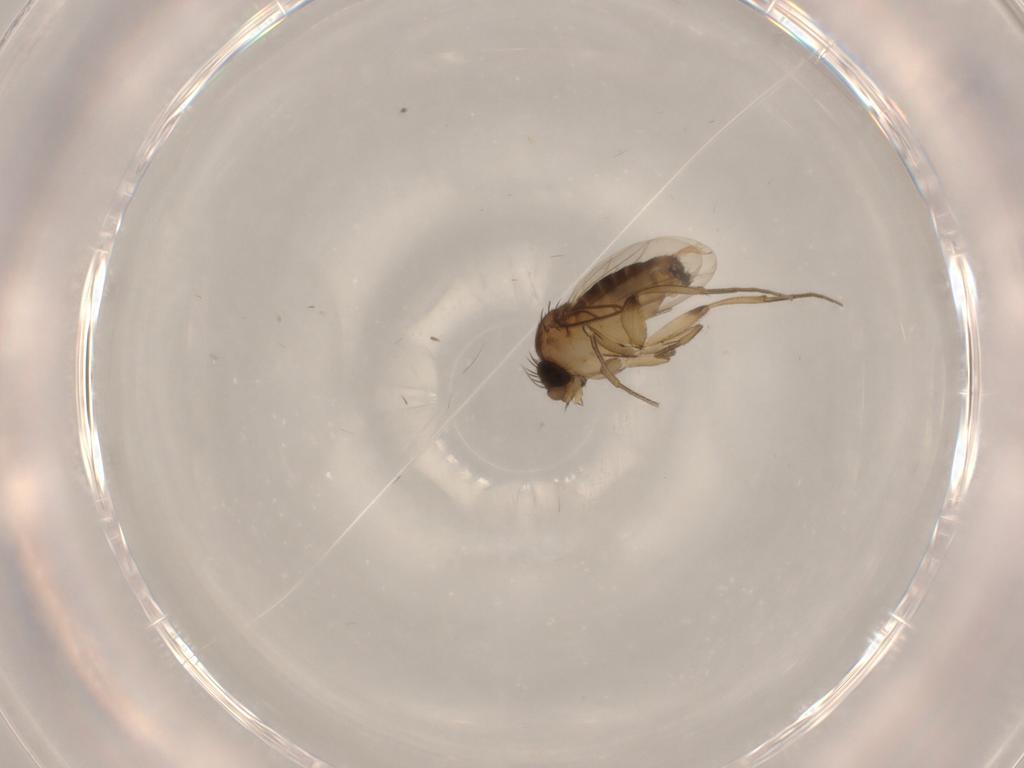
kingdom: Animalia
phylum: Arthropoda
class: Insecta
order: Diptera
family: Phoridae
